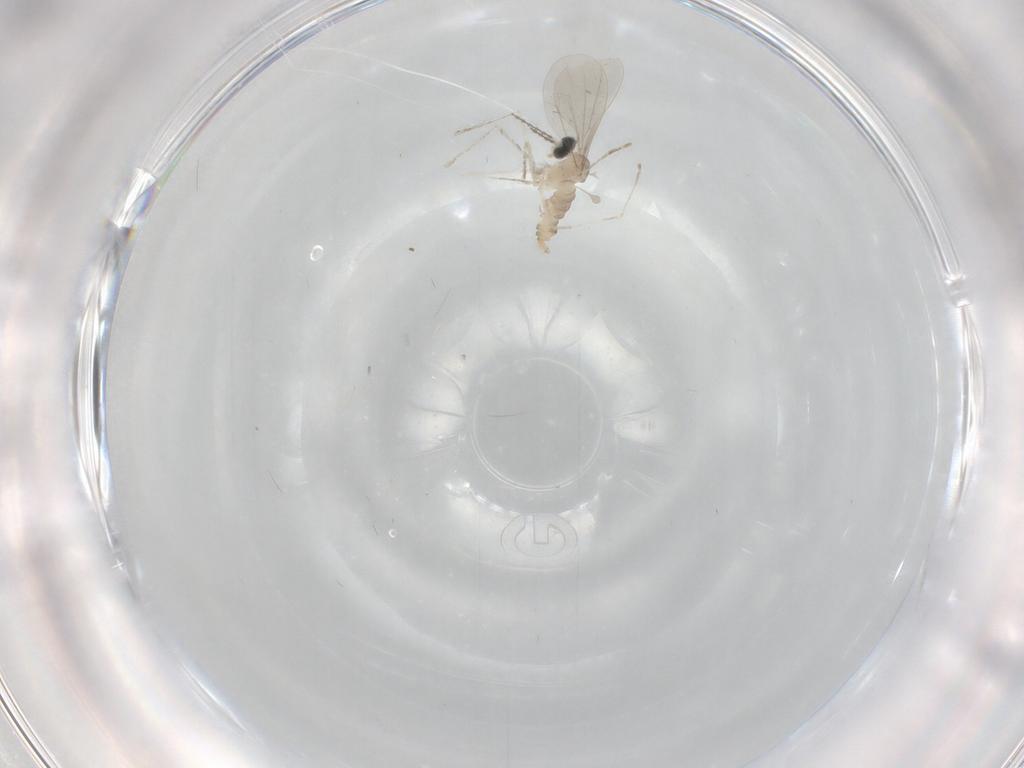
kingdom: Animalia
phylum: Arthropoda
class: Insecta
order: Diptera
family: Cecidomyiidae
